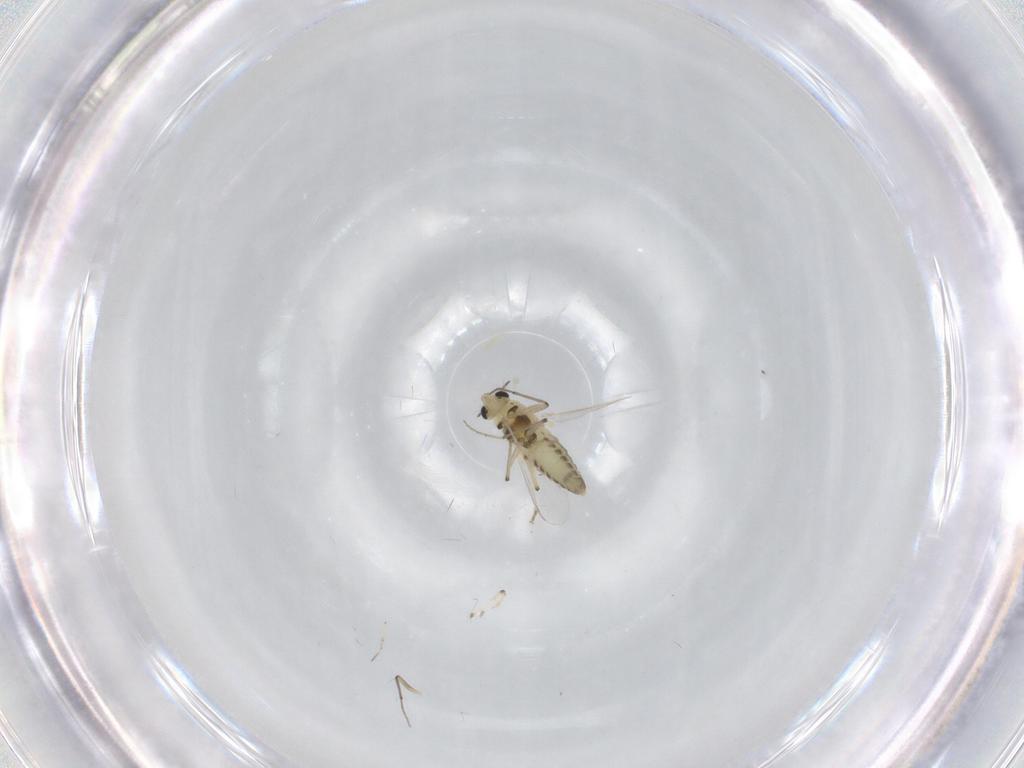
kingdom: Animalia
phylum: Arthropoda
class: Insecta
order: Diptera
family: Chironomidae
